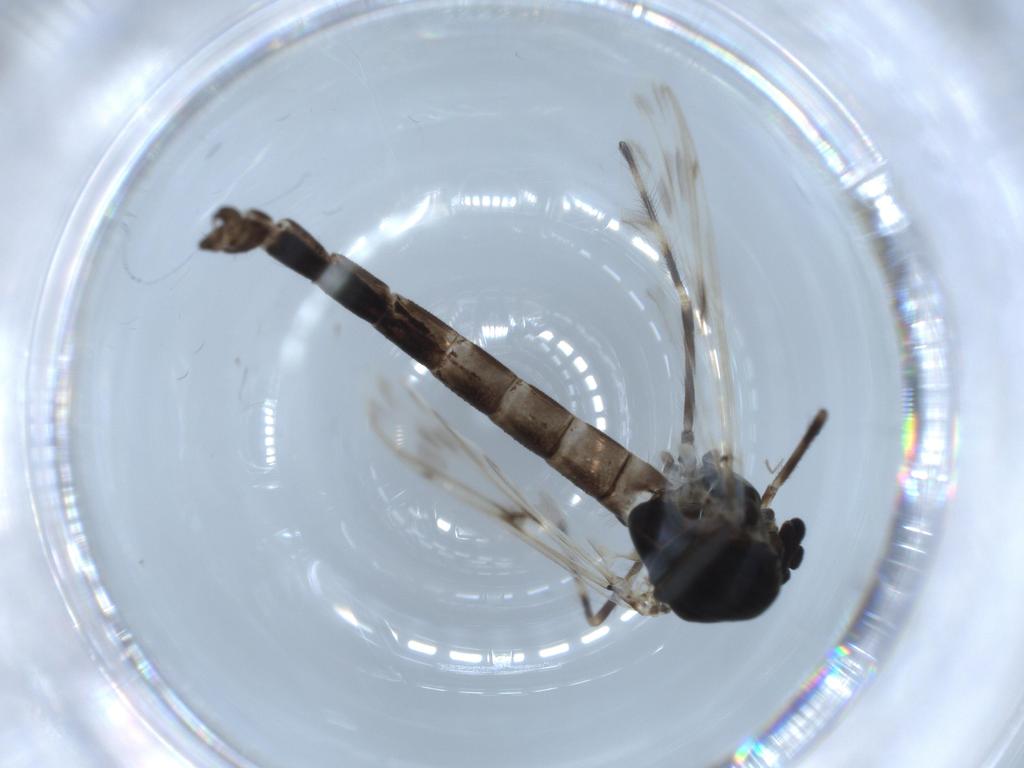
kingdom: Animalia
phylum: Arthropoda
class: Insecta
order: Diptera
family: Chironomidae
